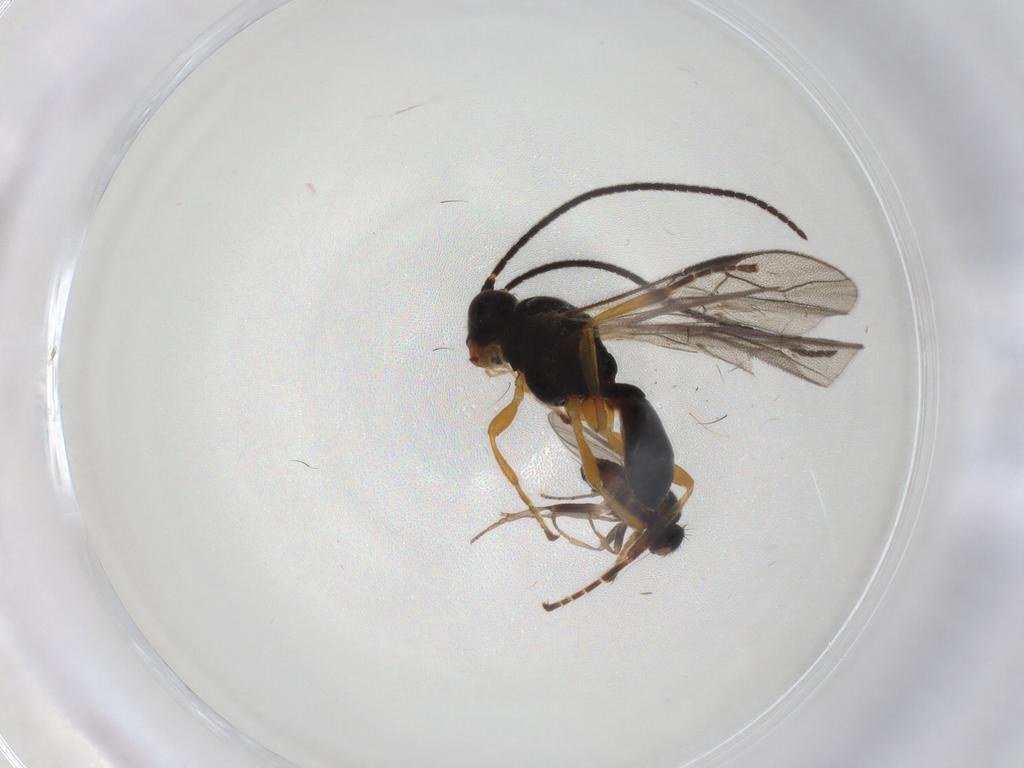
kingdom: Animalia
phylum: Arthropoda
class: Insecta
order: Diptera
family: Sphaeroceridae
